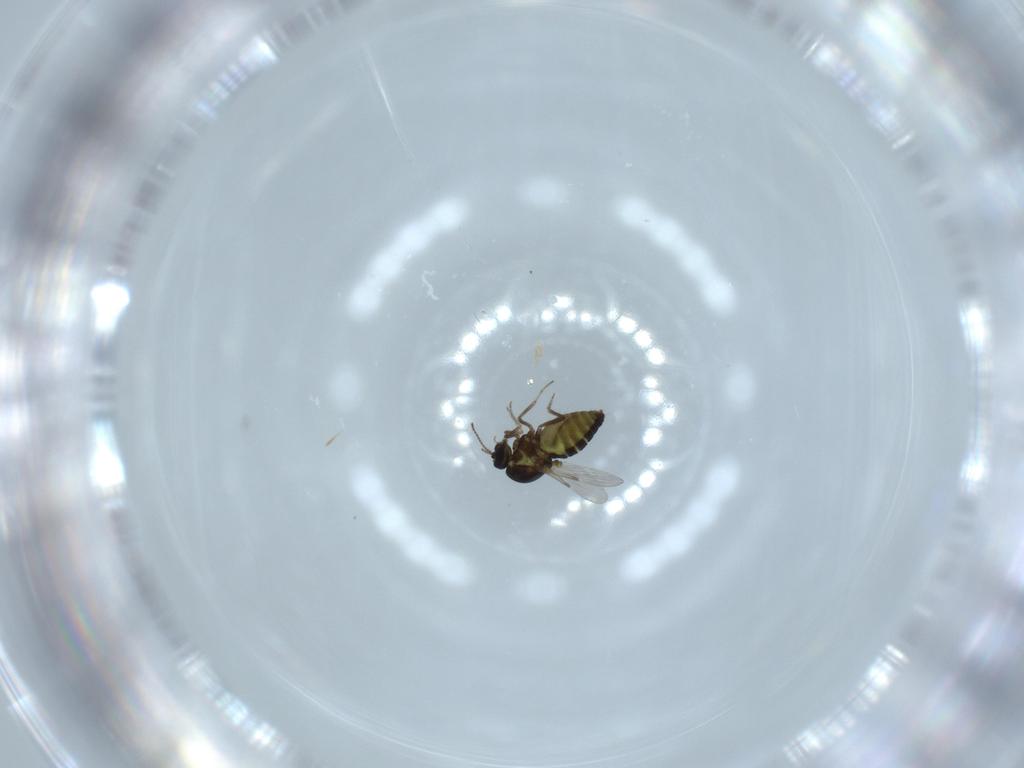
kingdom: Animalia
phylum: Arthropoda
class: Insecta
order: Diptera
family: Ceratopogonidae
